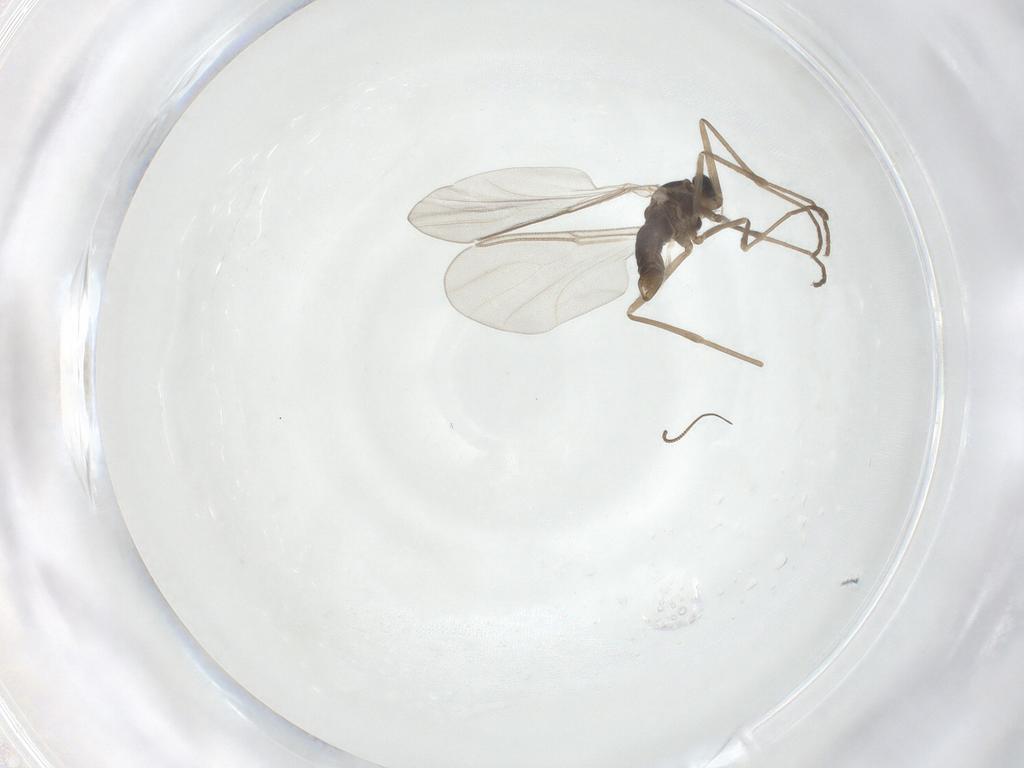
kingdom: Animalia
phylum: Arthropoda
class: Insecta
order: Diptera
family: Cecidomyiidae
